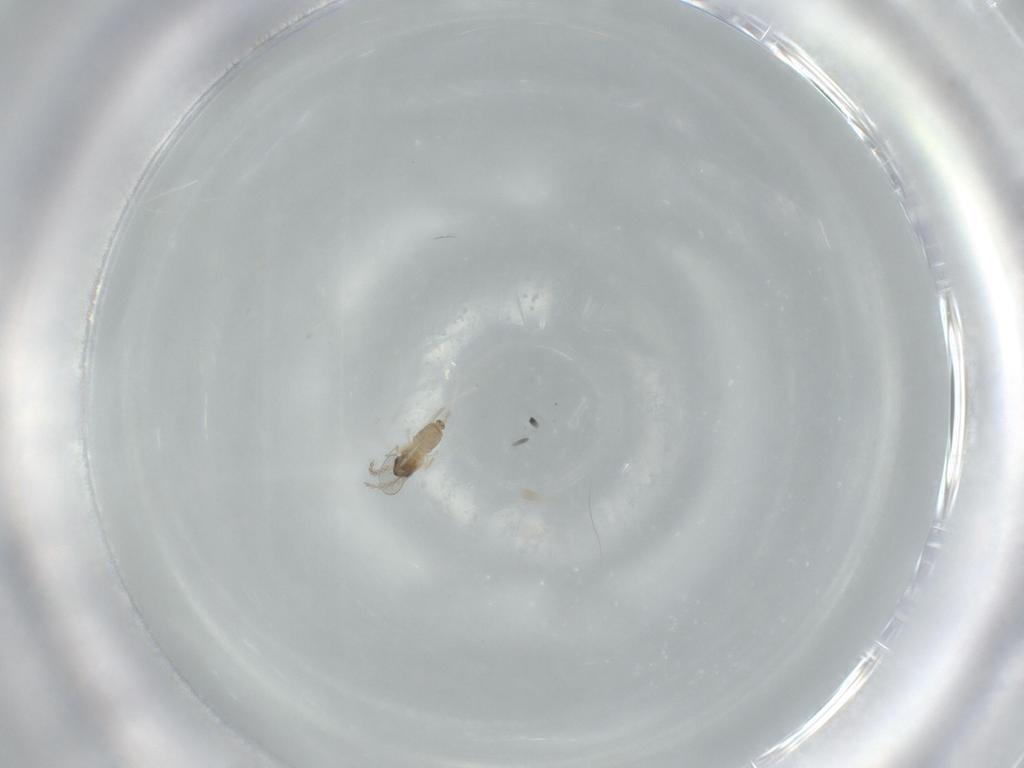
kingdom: Animalia
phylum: Arthropoda
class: Insecta
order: Diptera
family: Cecidomyiidae
